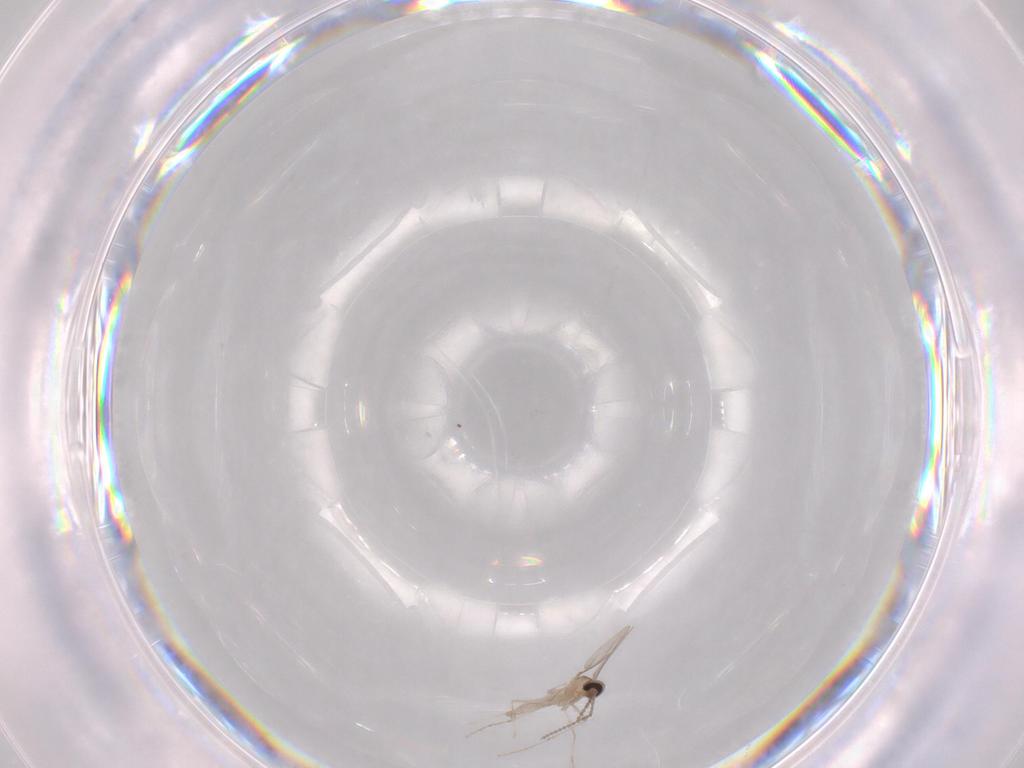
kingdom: Animalia
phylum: Arthropoda
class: Insecta
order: Diptera
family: Cecidomyiidae
